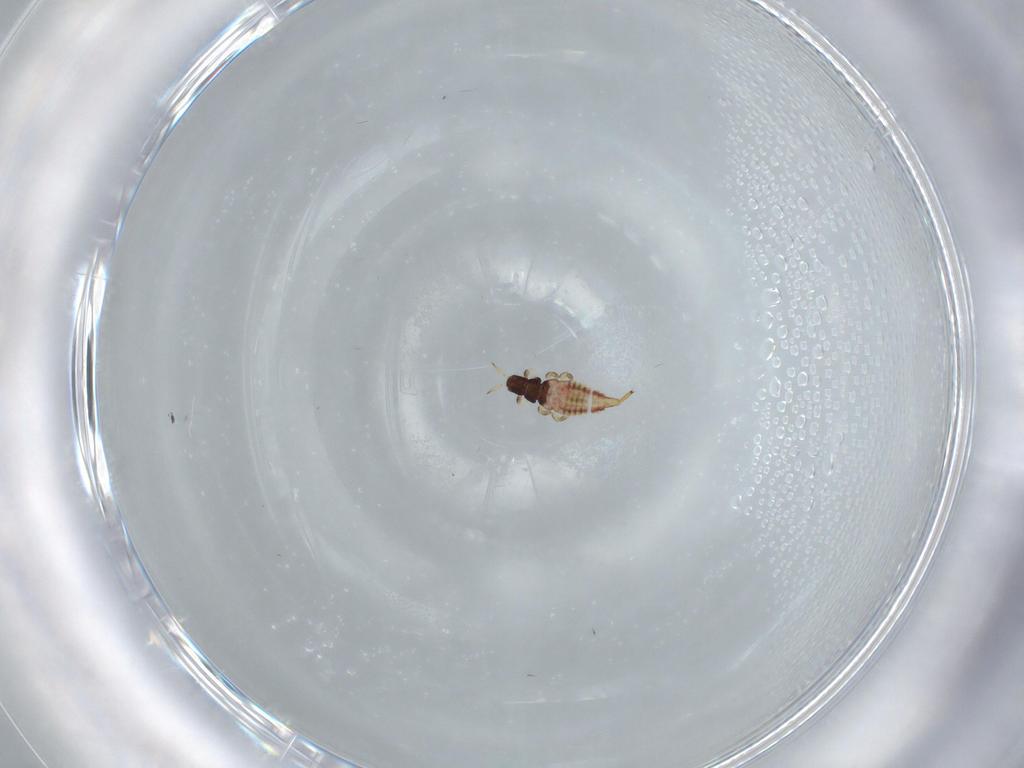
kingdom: Animalia
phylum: Arthropoda
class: Insecta
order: Thysanoptera
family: Phlaeothripidae
